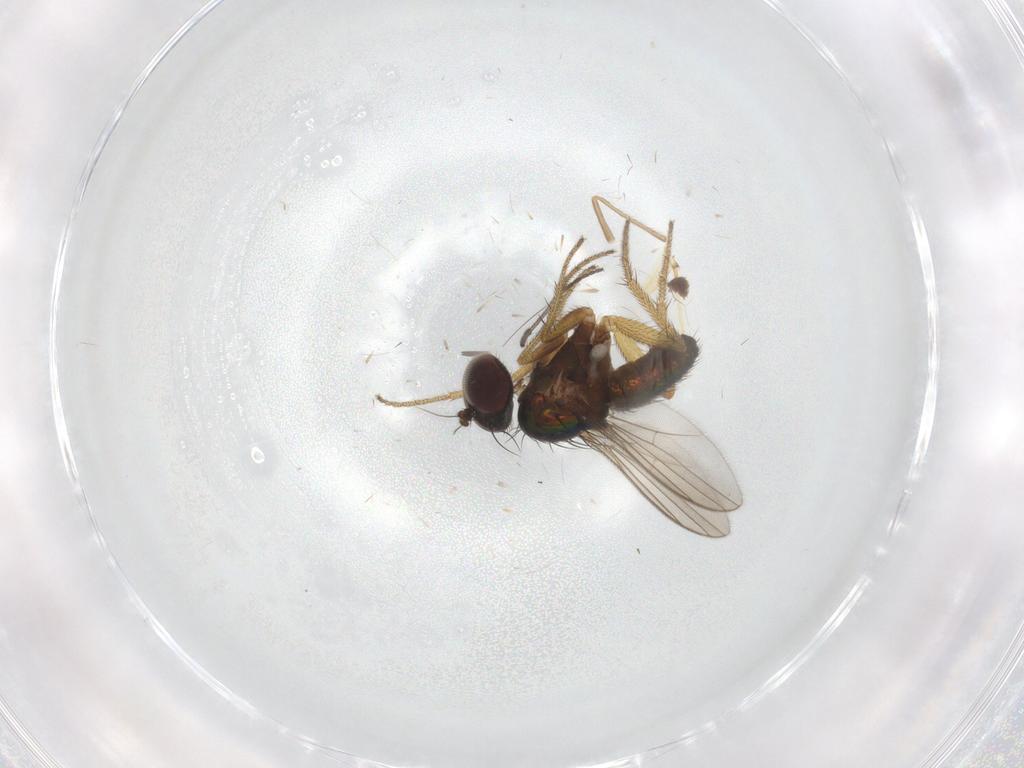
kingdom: Animalia
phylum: Arthropoda
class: Insecta
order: Diptera
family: Sciaridae
